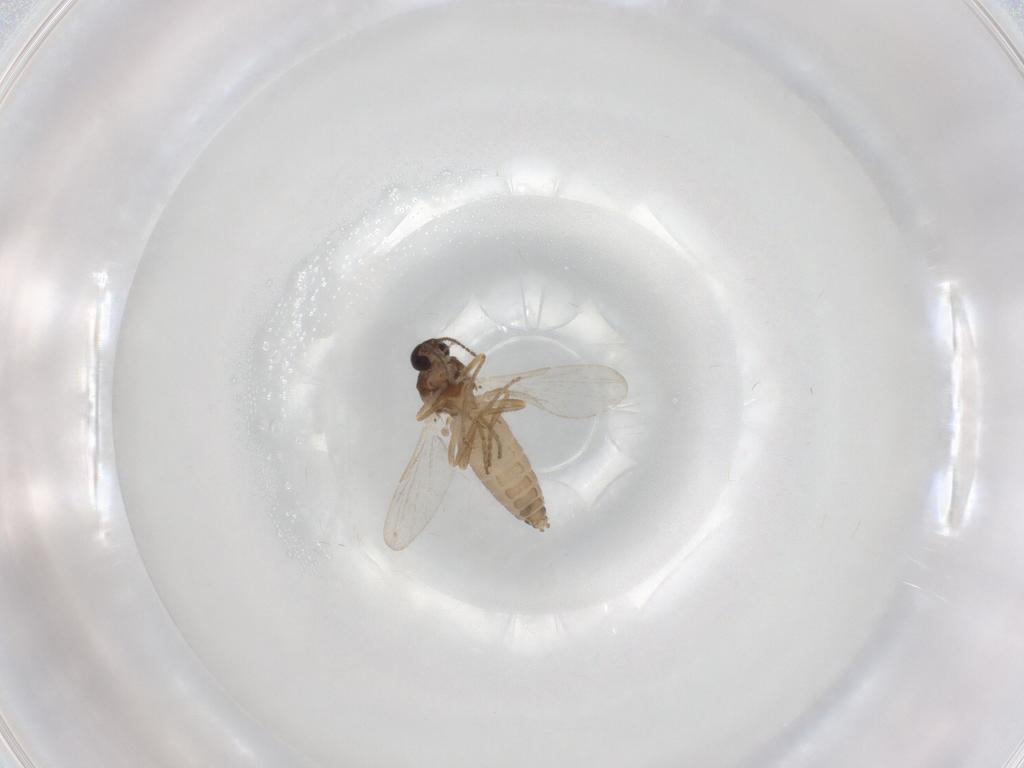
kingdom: Animalia
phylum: Arthropoda
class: Insecta
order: Diptera
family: Ceratopogonidae
